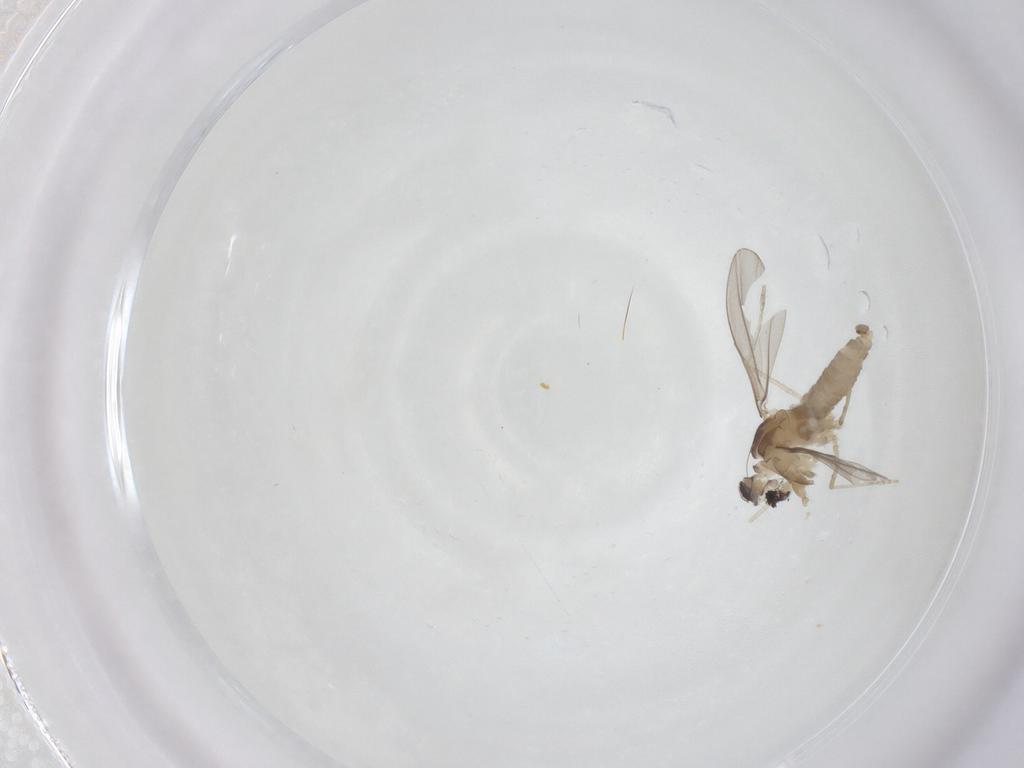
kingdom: Animalia
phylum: Arthropoda
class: Insecta
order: Diptera
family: Cecidomyiidae
